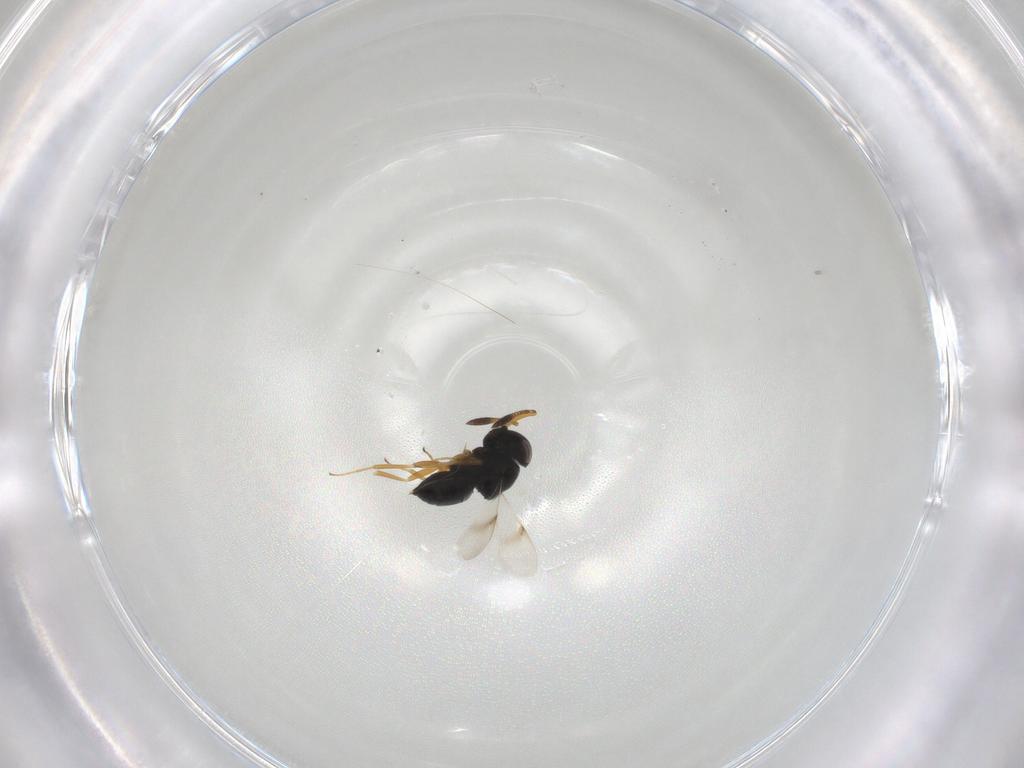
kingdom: Animalia
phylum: Arthropoda
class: Insecta
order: Hymenoptera
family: Scelionidae
